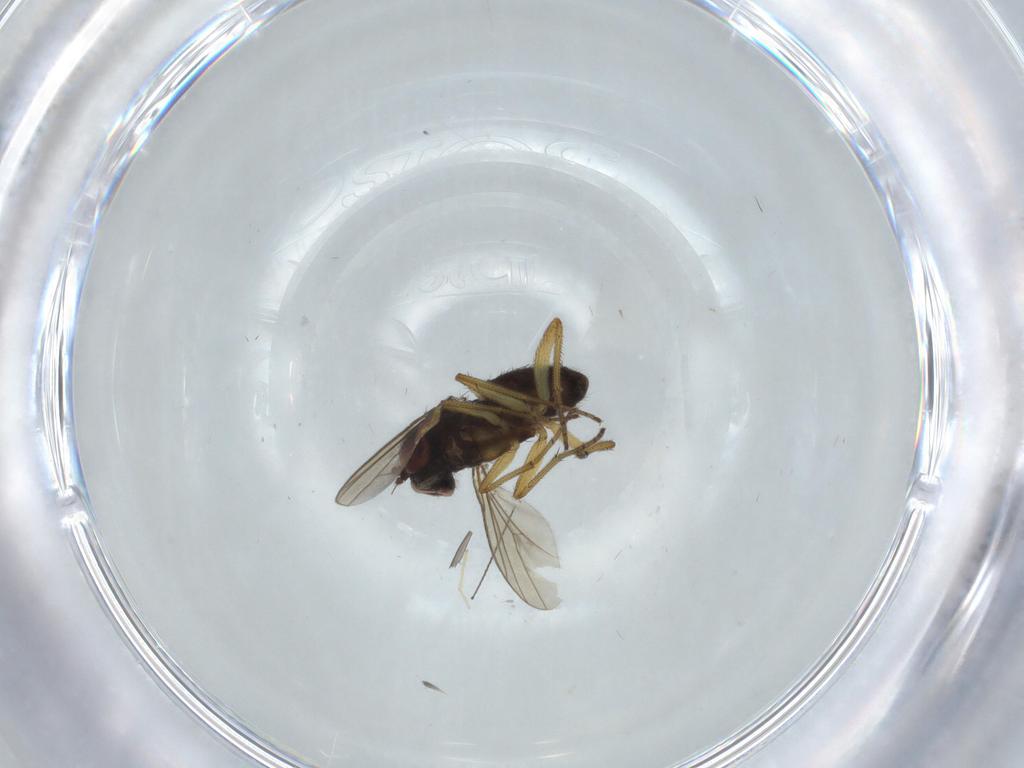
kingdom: Animalia
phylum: Arthropoda
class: Insecta
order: Diptera
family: Dolichopodidae
